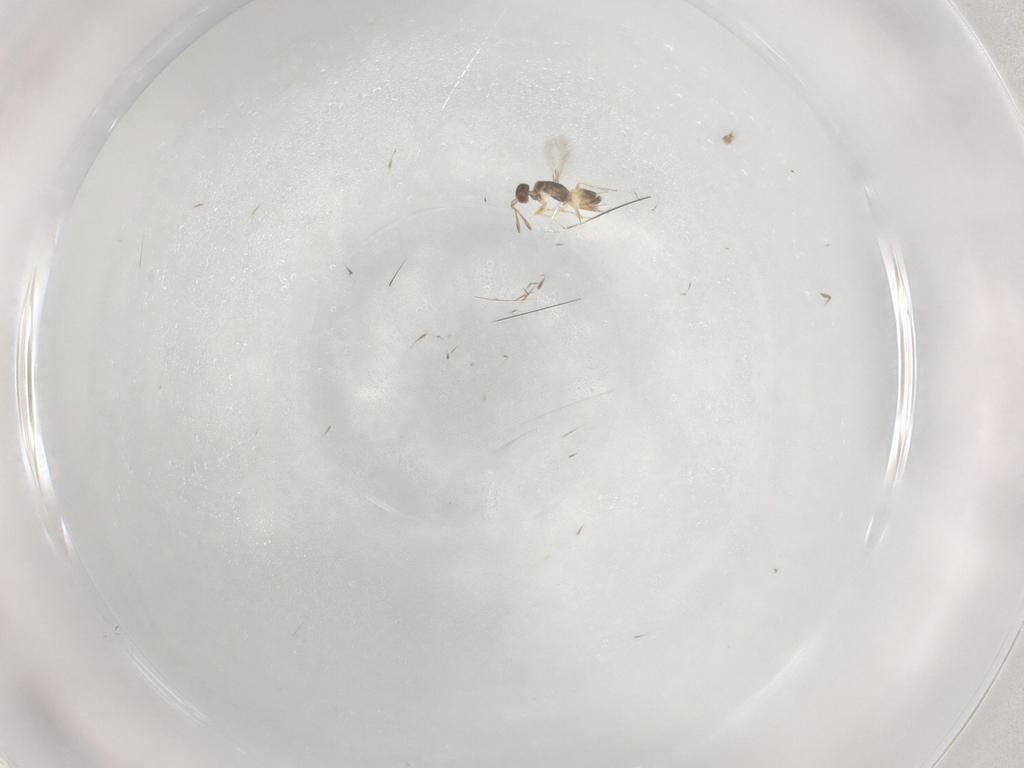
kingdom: Animalia
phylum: Arthropoda
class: Insecta
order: Hymenoptera
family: Mymaridae
